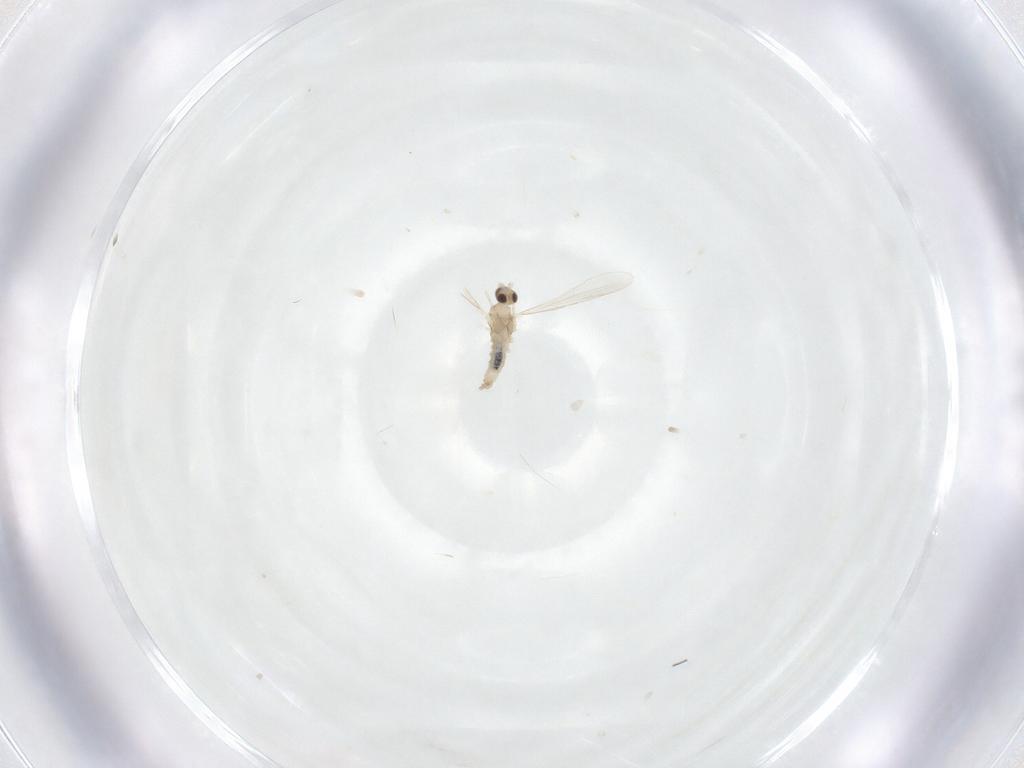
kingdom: Animalia
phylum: Arthropoda
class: Insecta
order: Diptera
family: Cecidomyiidae
